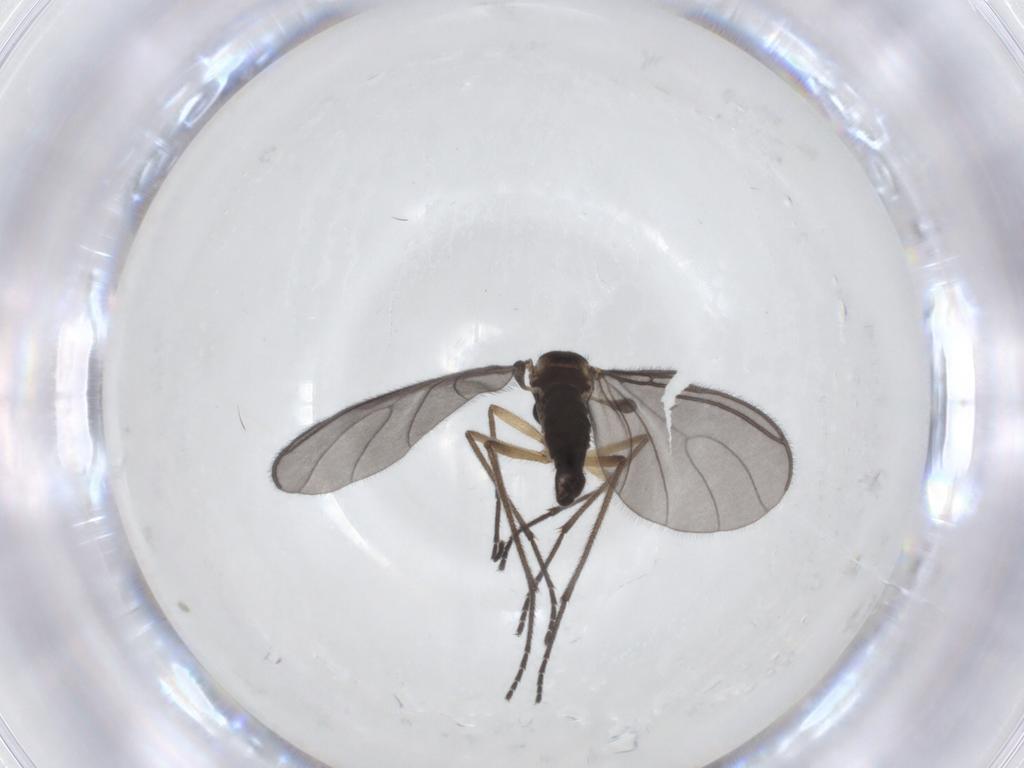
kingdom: Animalia
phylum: Arthropoda
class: Insecta
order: Diptera
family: Sciaridae
